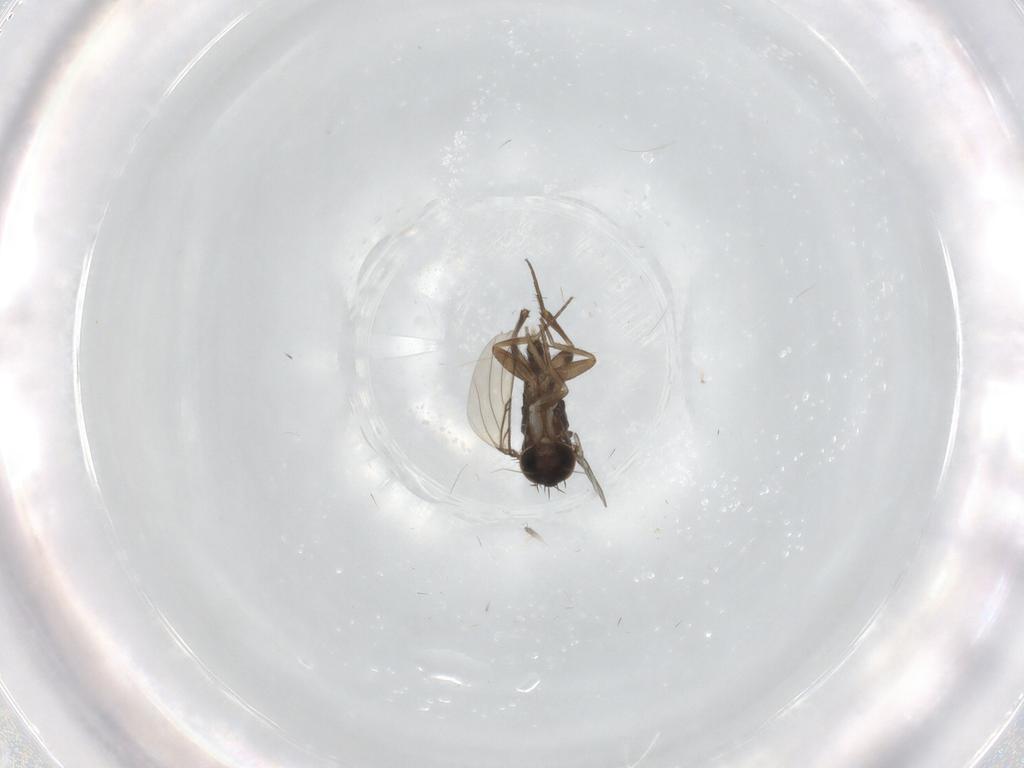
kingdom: Animalia
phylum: Arthropoda
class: Insecta
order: Diptera
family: Phoridae
